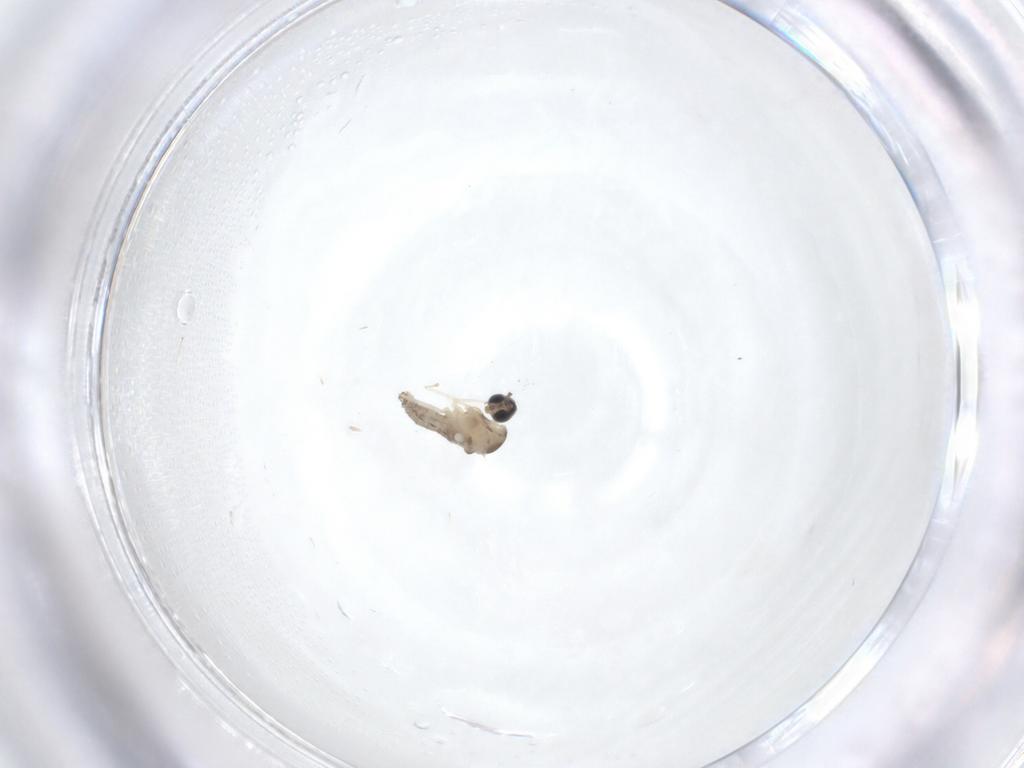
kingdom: Animalia
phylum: Arthropoda
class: Insecta
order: Diptera
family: Cecidomyiidae
